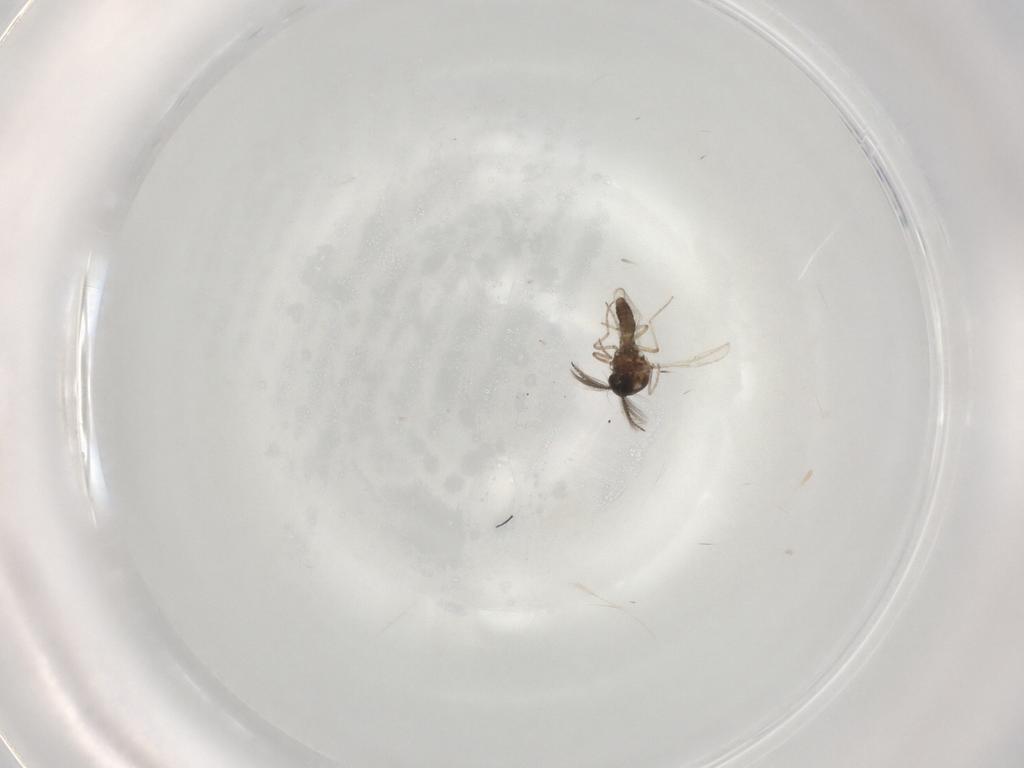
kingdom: Animalia
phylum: Arthropoda
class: Insecta
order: Diptera
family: Ceratopogonidae
